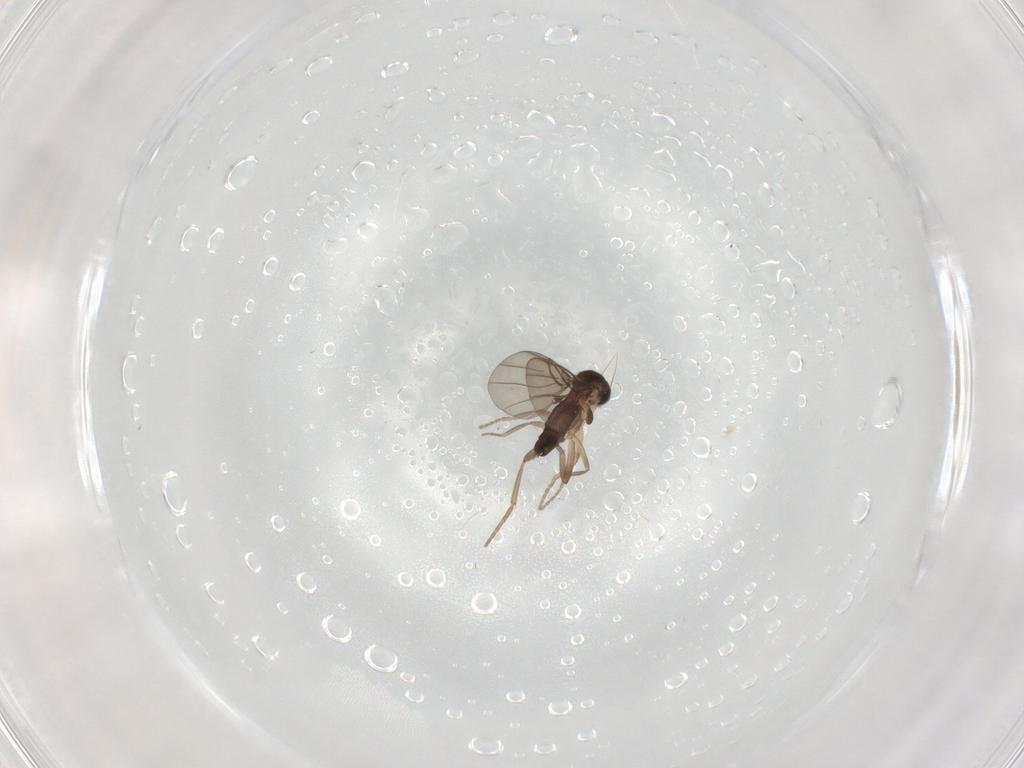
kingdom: Animalia
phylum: Arthropoda
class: Insecta
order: Diptera
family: Phoridae
